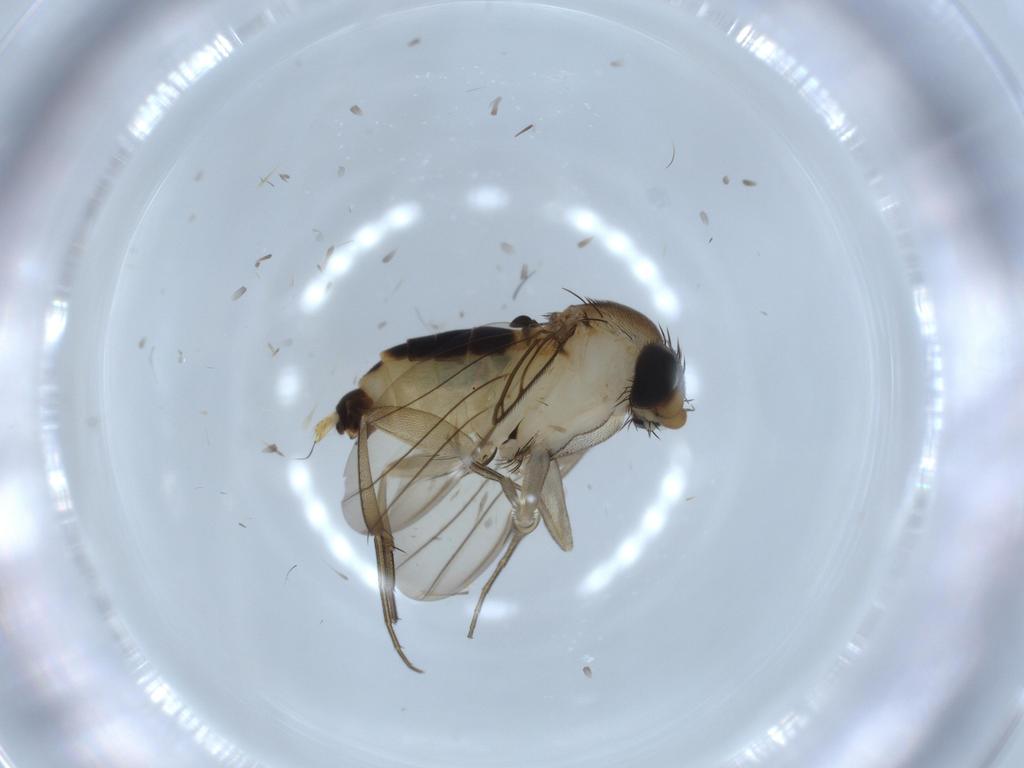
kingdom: Animalia
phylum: Arthropoda
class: Insecta
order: Diptera
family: Phoridae
